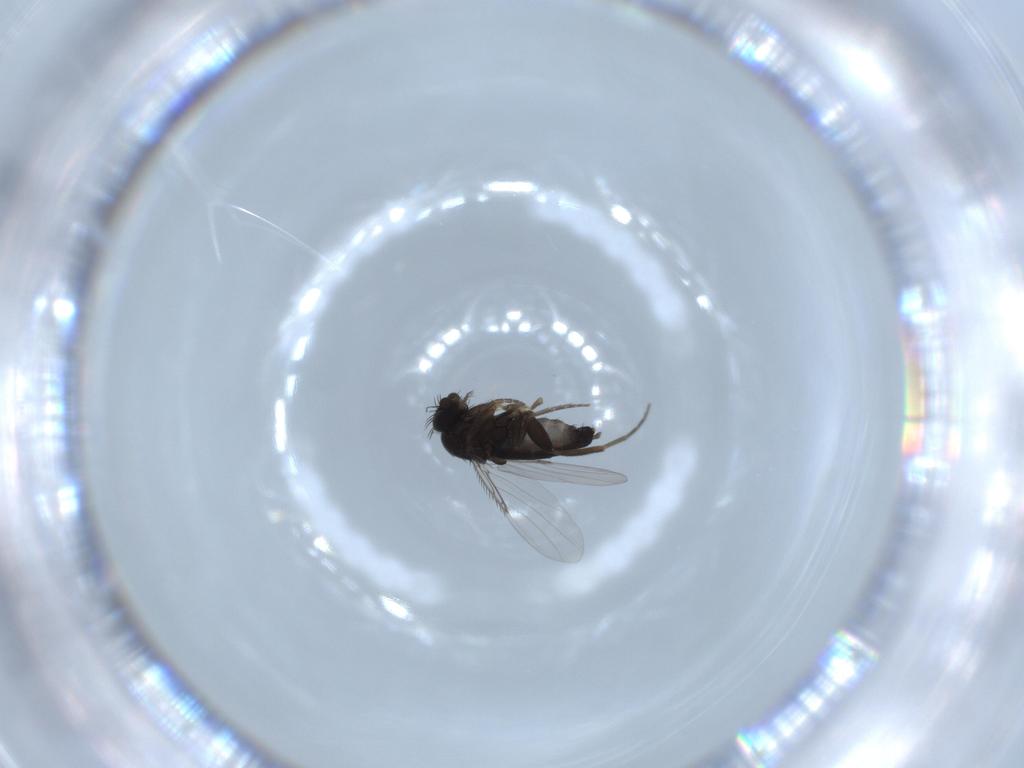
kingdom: Animalia
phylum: Arthropoda
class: Insecta
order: Diptera
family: Phoridae
